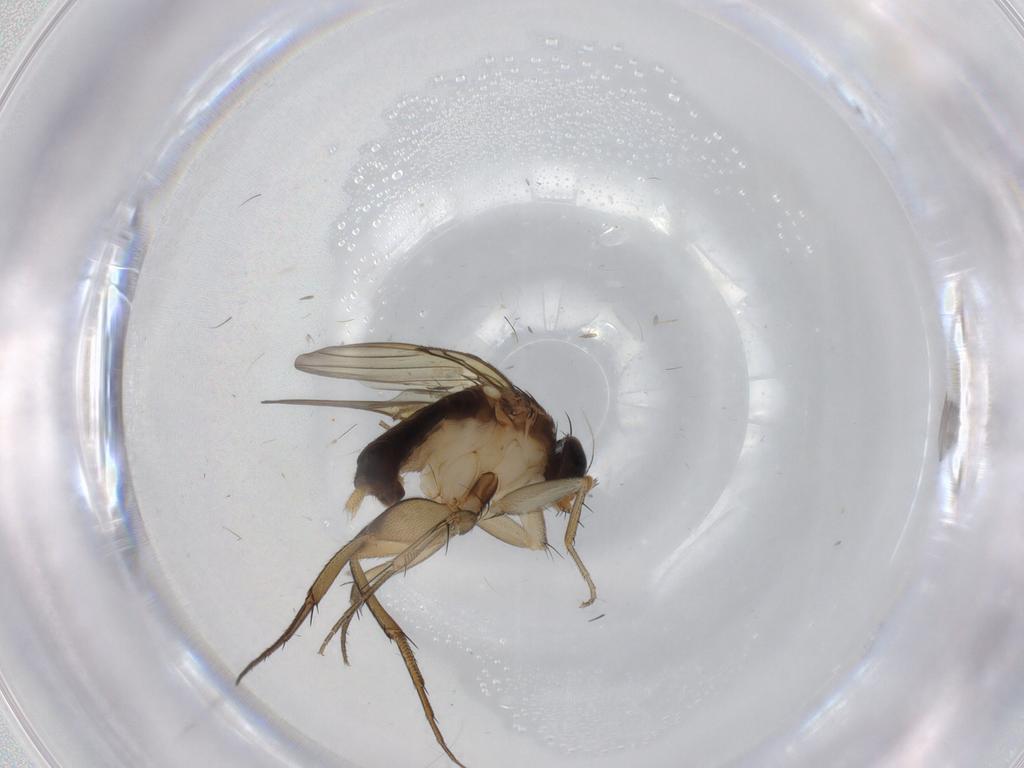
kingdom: Animalia
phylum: Arthropoda
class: Insecta
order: Diptera
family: Phoridae
